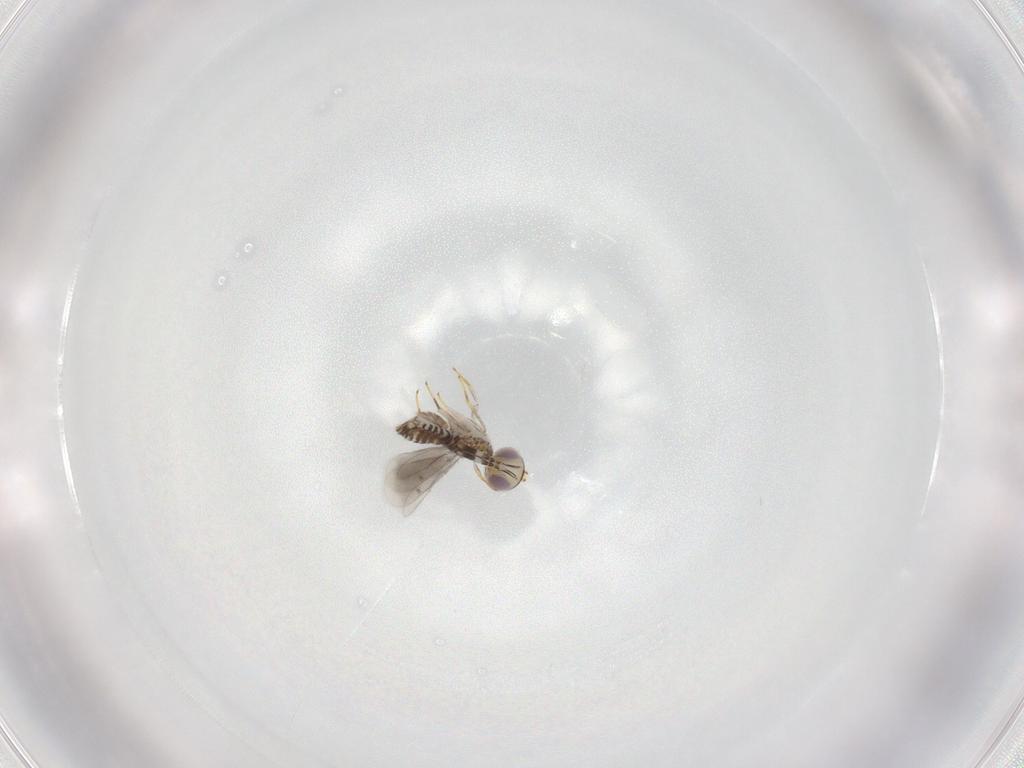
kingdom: Animalia
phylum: Arthropoda
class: Insecta
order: Hymenoptera
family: Aphelinidae
